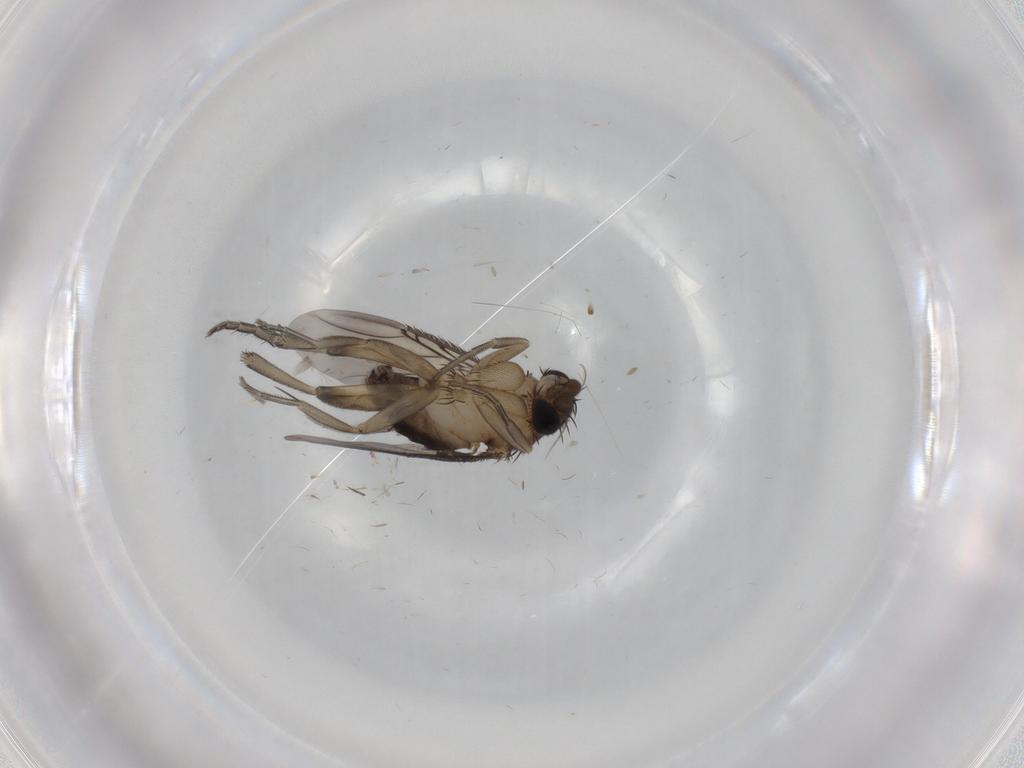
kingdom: Animalia
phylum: Arthropoda
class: Insecta
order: Diptera
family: Phoridae
